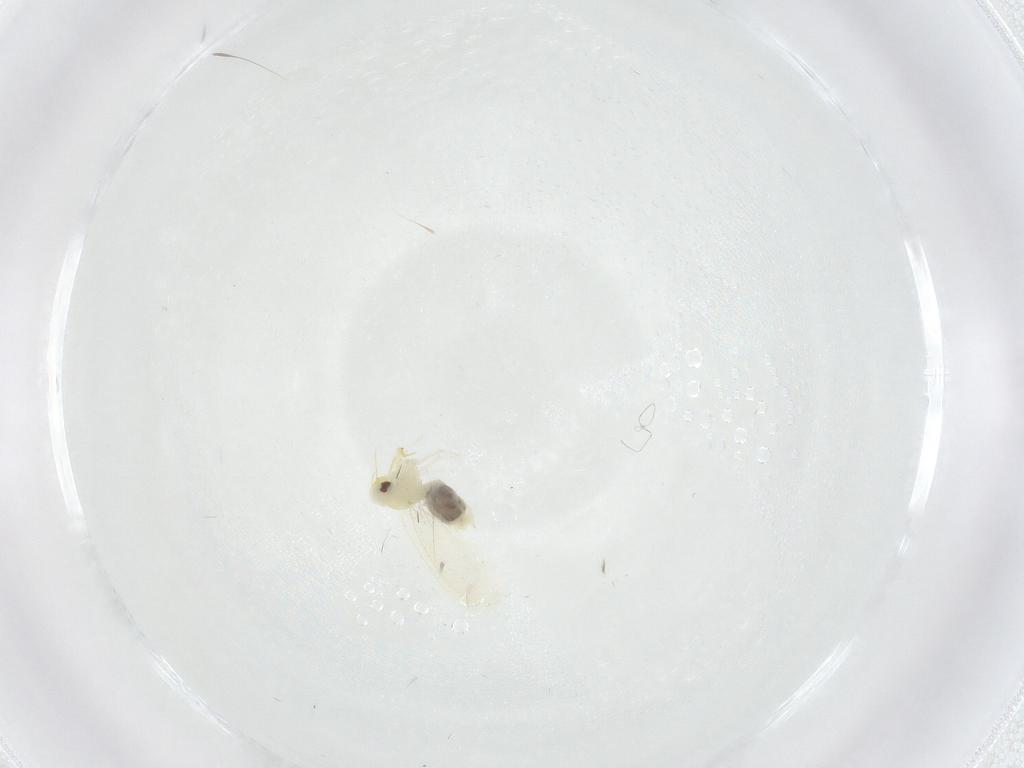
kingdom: Animalia
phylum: Arthropoda
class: Insecta
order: Hemiptera
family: Aleyrodidae
